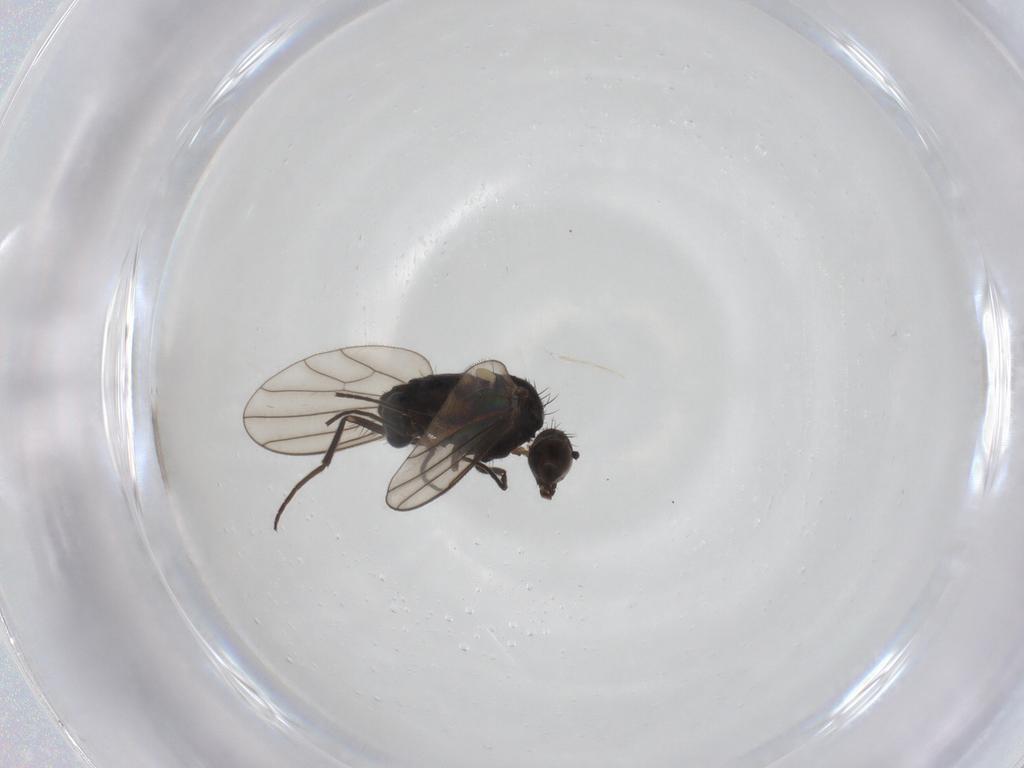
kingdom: Animalia
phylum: Arthropoda
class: Insecta
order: Diptera
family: Dolichopodidae
